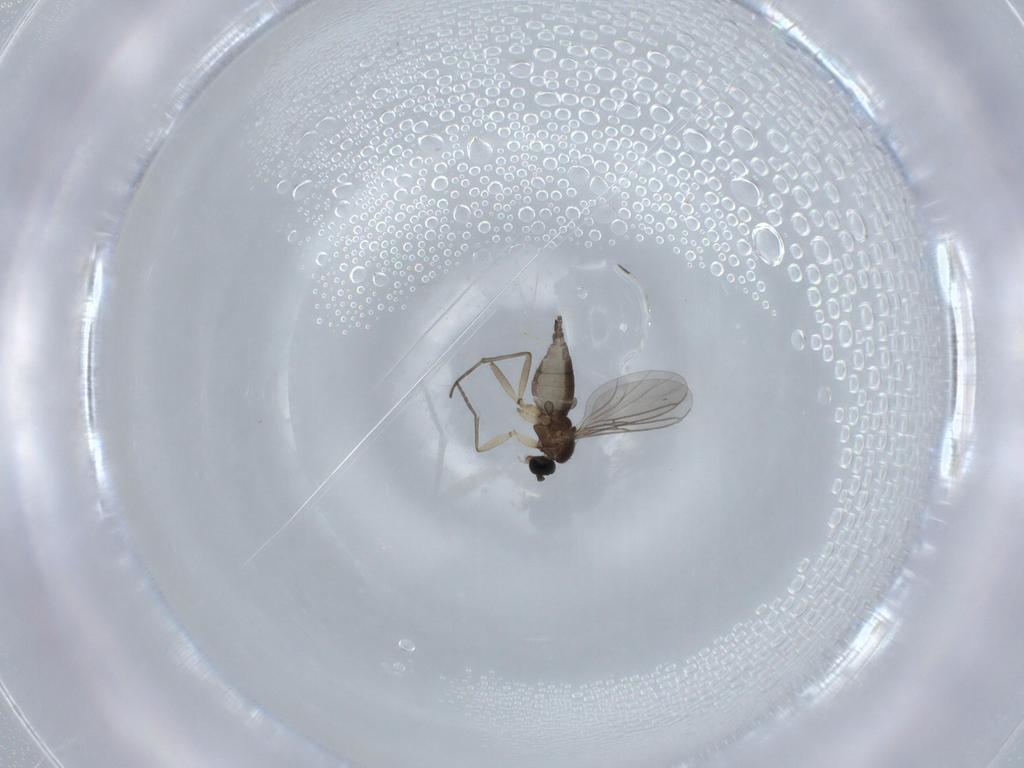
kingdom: Animalia
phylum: Arthropoda
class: Insecta
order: Diptera
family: Sciaridae
